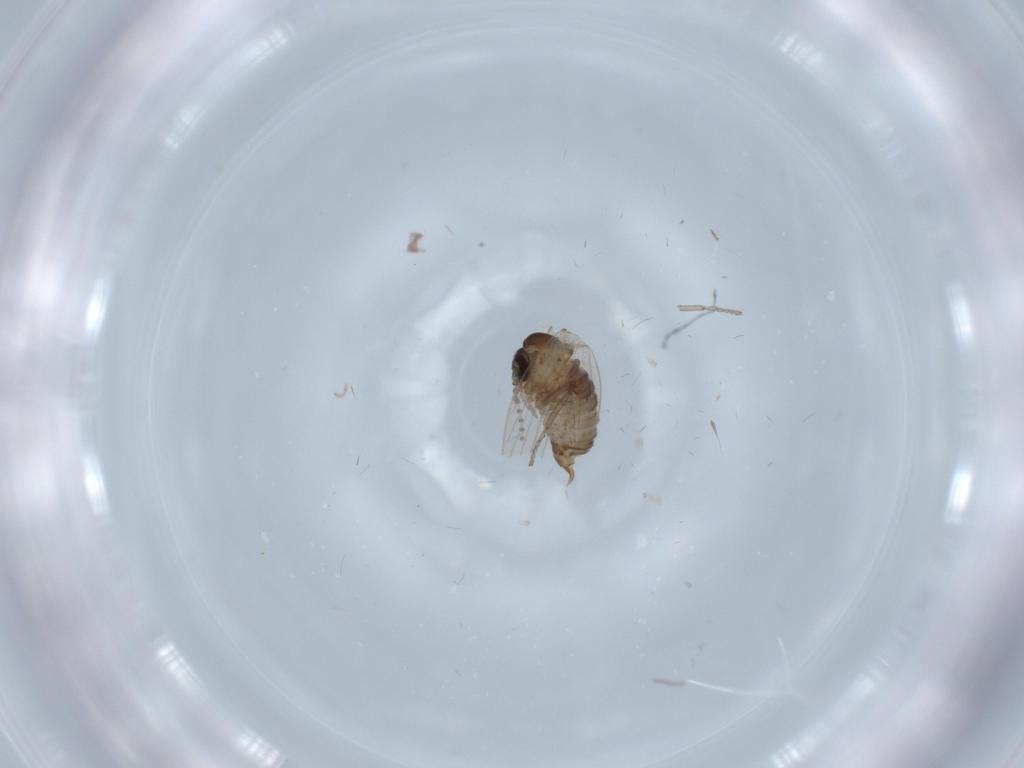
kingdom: Animalia
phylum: Arthropoda
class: Insecta
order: Diptera
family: Psychodidae
